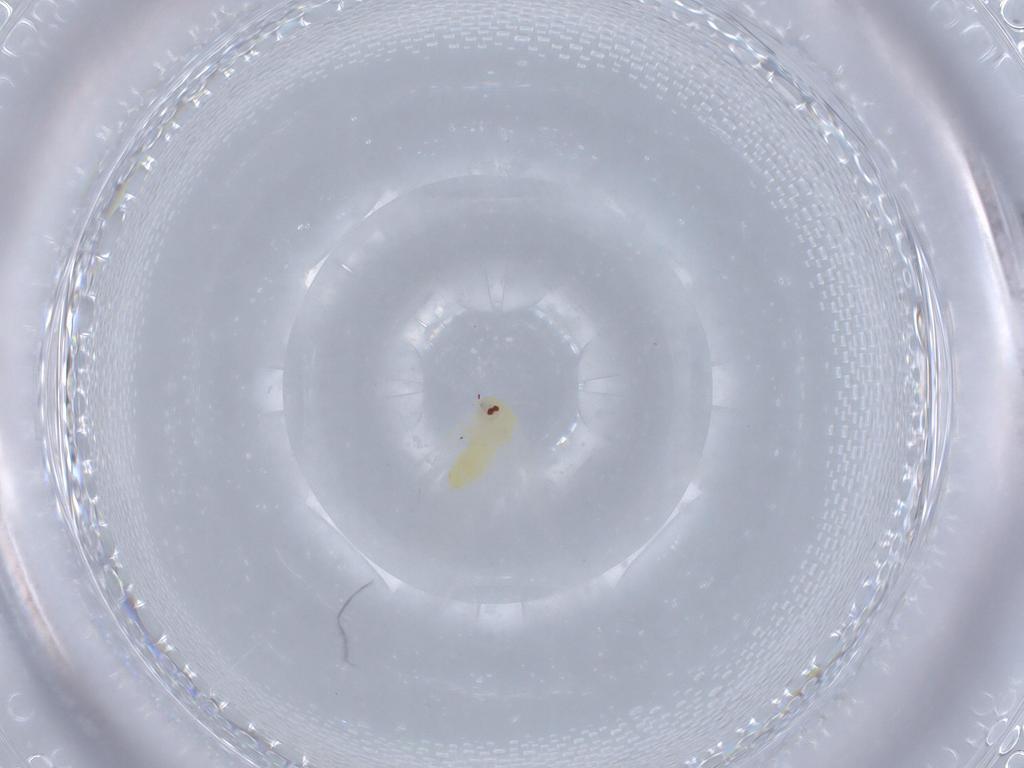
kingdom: Animalia
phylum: Arthropoda
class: Insecta
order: Hemiptera
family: Aleyrodidae
